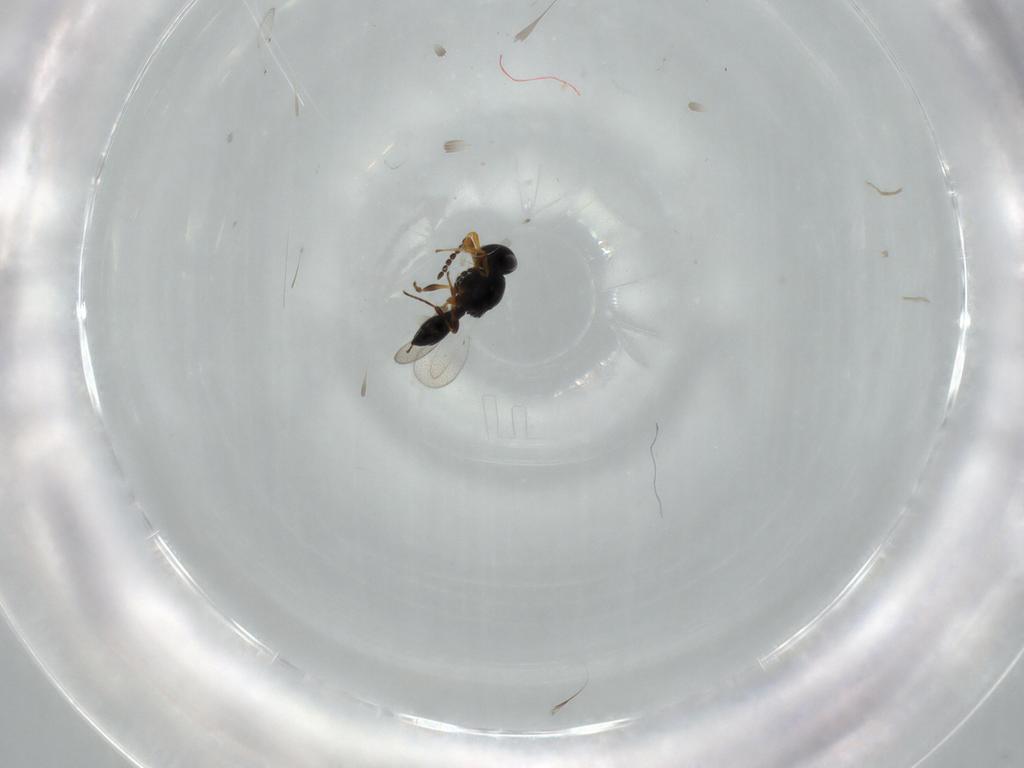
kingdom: Animalia
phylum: Arthropoda
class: Insecta
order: Hymenoptera
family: Platygastridae
